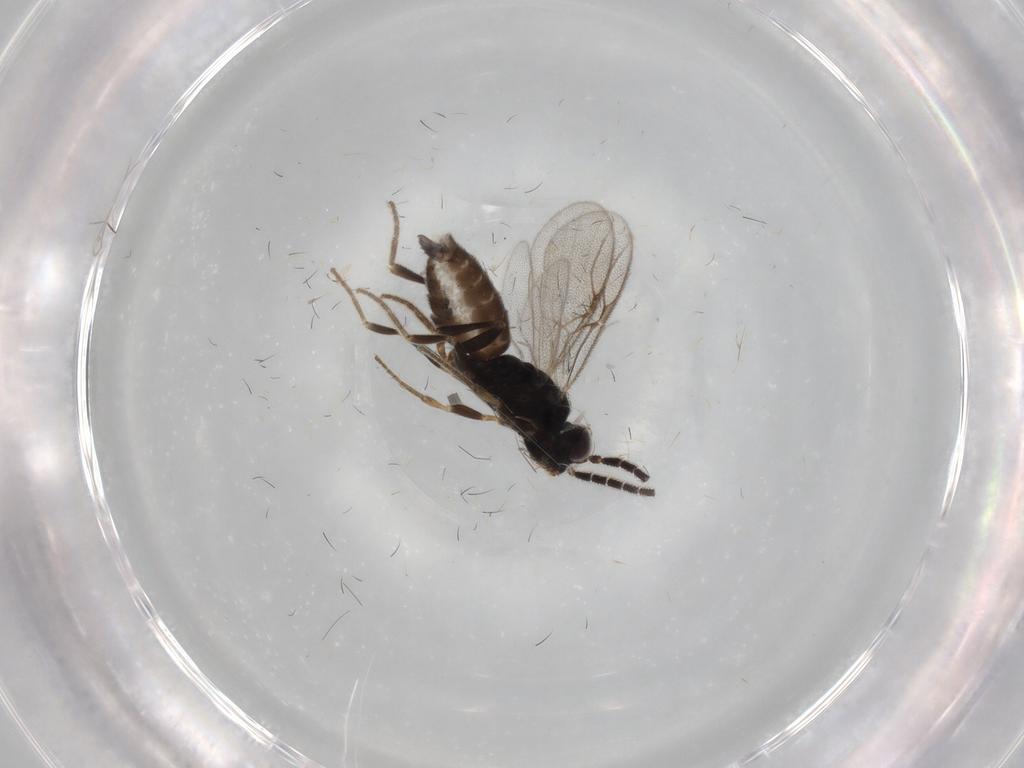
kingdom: Animalia
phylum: Arthropoda
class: Insecta
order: Hymenoptera
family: Dryinidae
